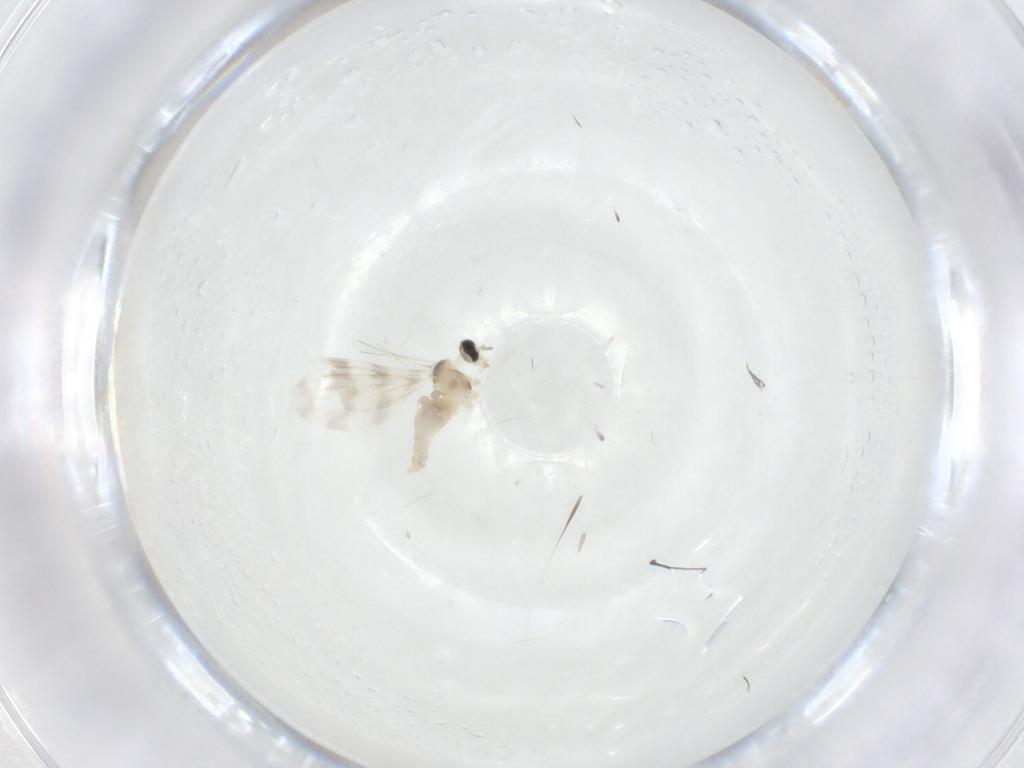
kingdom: Animalia
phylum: Arthropoda
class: Insecta
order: Diptera
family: Cecidomyiidae
